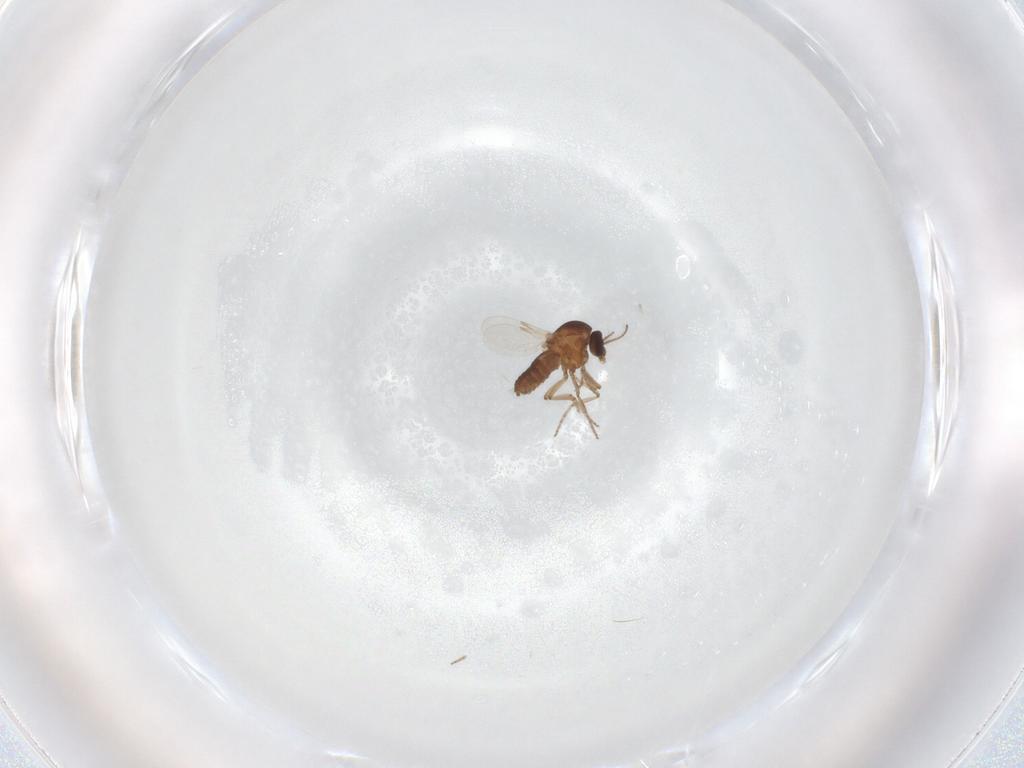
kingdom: Animalia
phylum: Arthropoda
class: Insecta
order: Diptera
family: Ceratopogonidae
